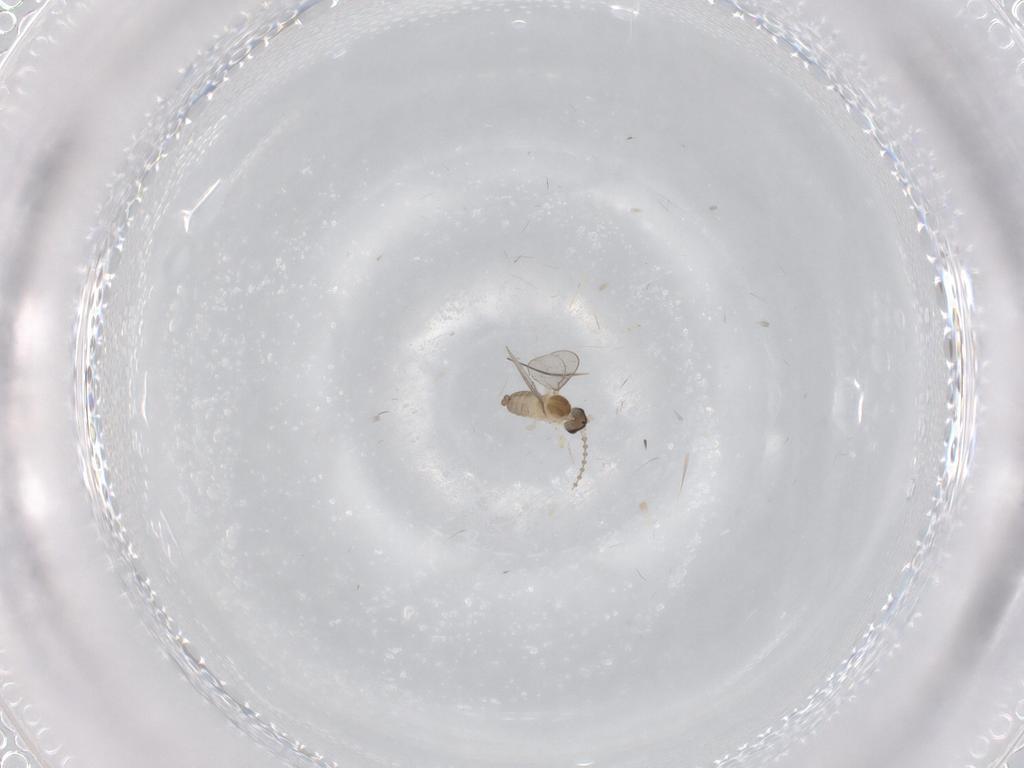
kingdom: Animalia
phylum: Arthropoda
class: Insecta
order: Diptera
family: Cecidomyiidae
